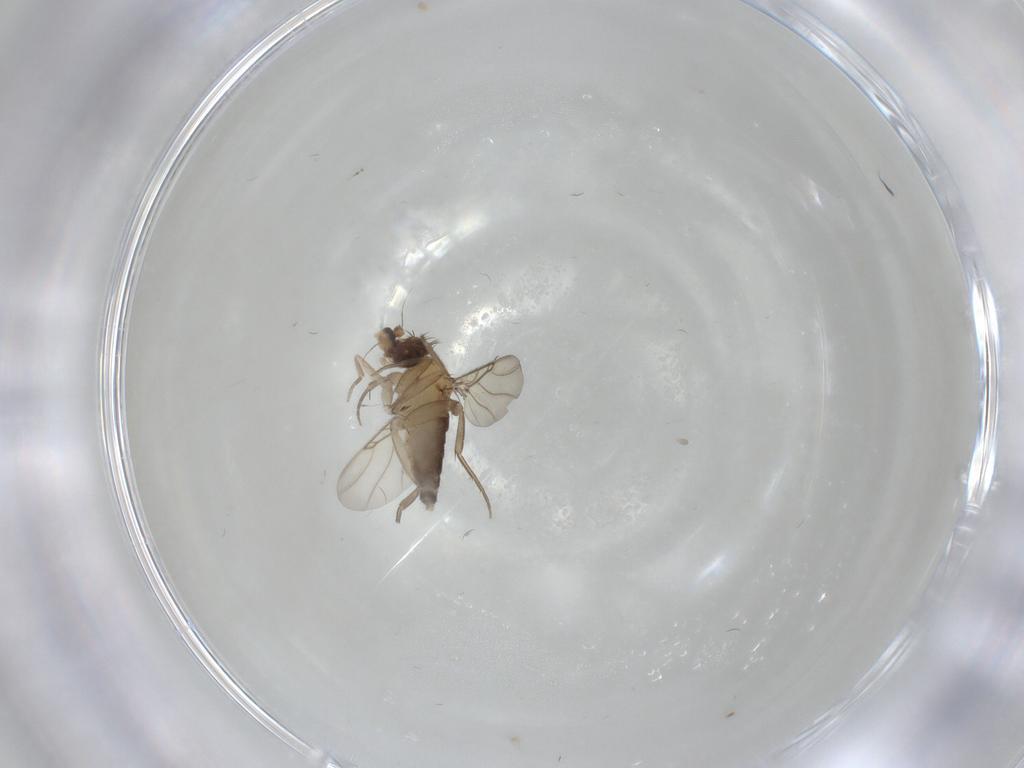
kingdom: Animalia
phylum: Arthropoda
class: Insecta
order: Diptera
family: Phoridae
